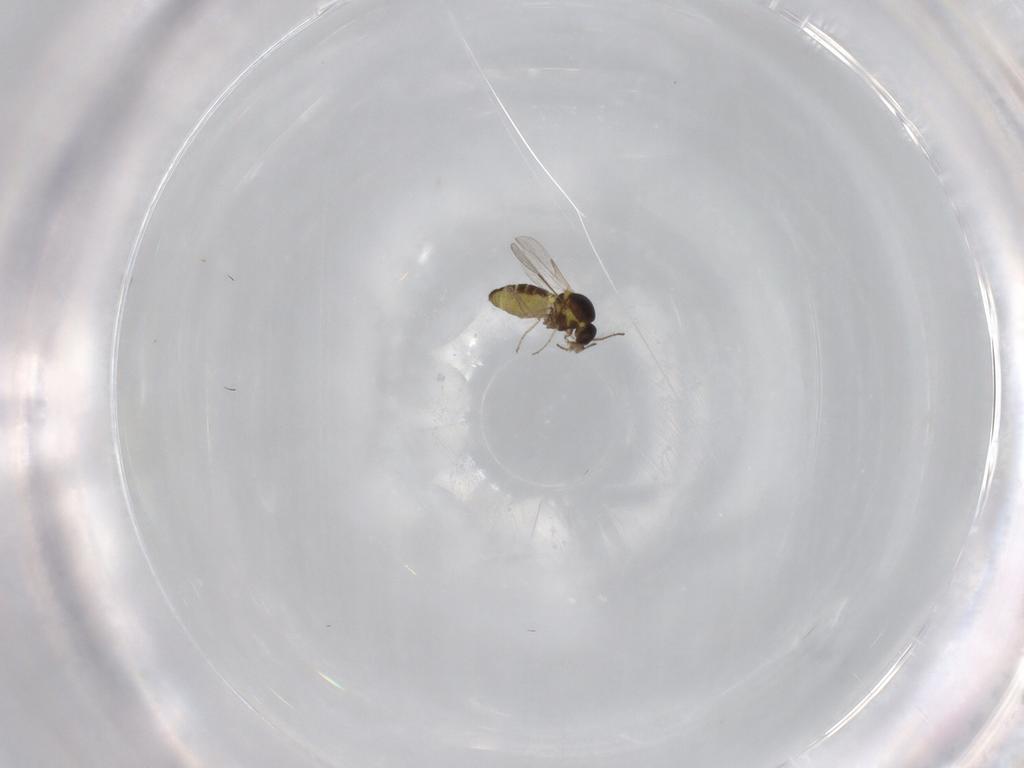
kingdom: Animalia
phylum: Arthropoda
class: Insecta
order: Diptera
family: Ceratopogonidae
